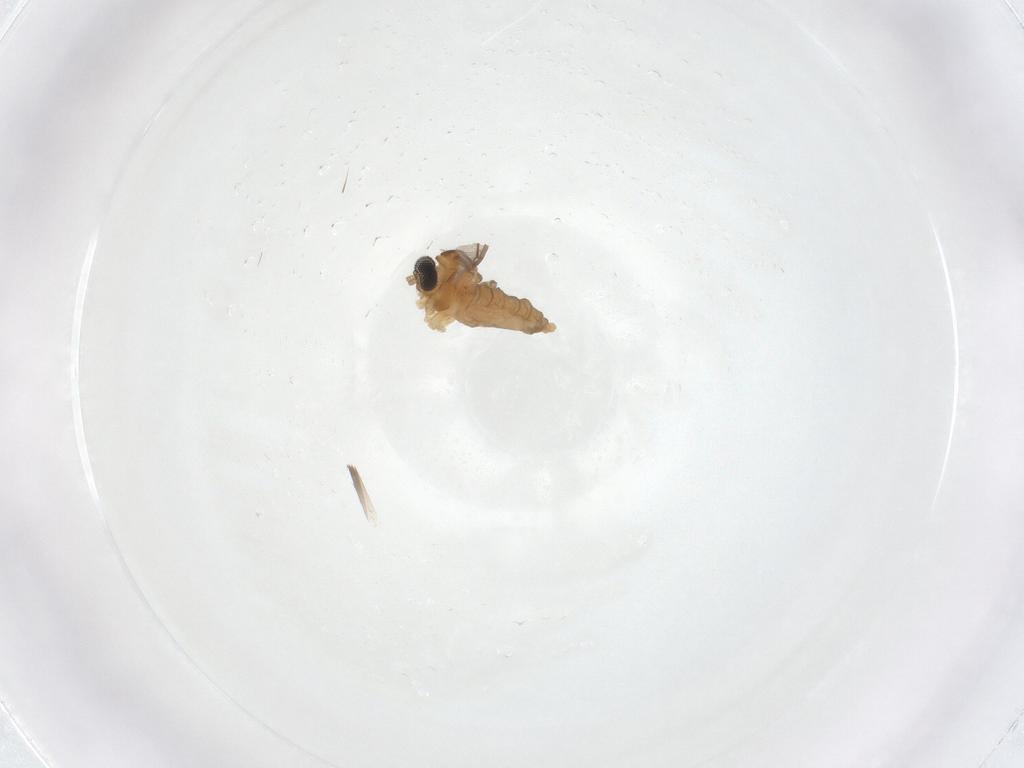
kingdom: Animalia
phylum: Arthropoda
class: Insecta
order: Diptera
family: Cecidomyiidae
